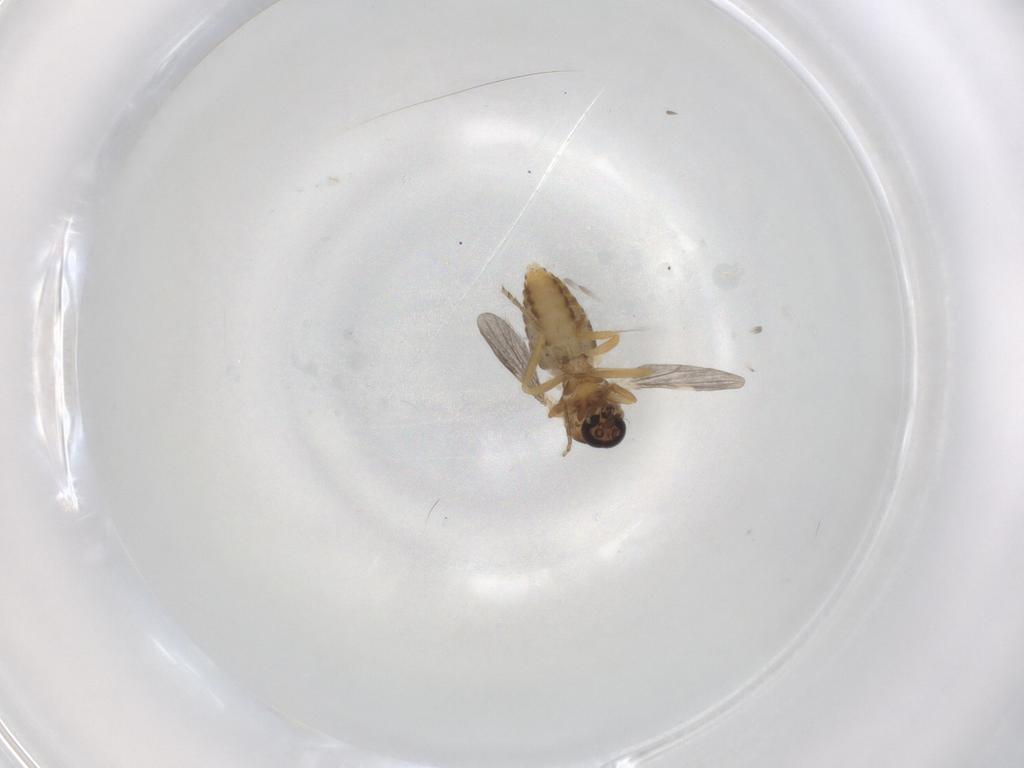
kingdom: Animalia
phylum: Arthropoda
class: Insecta
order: Diptera
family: Ceratopogonidae
